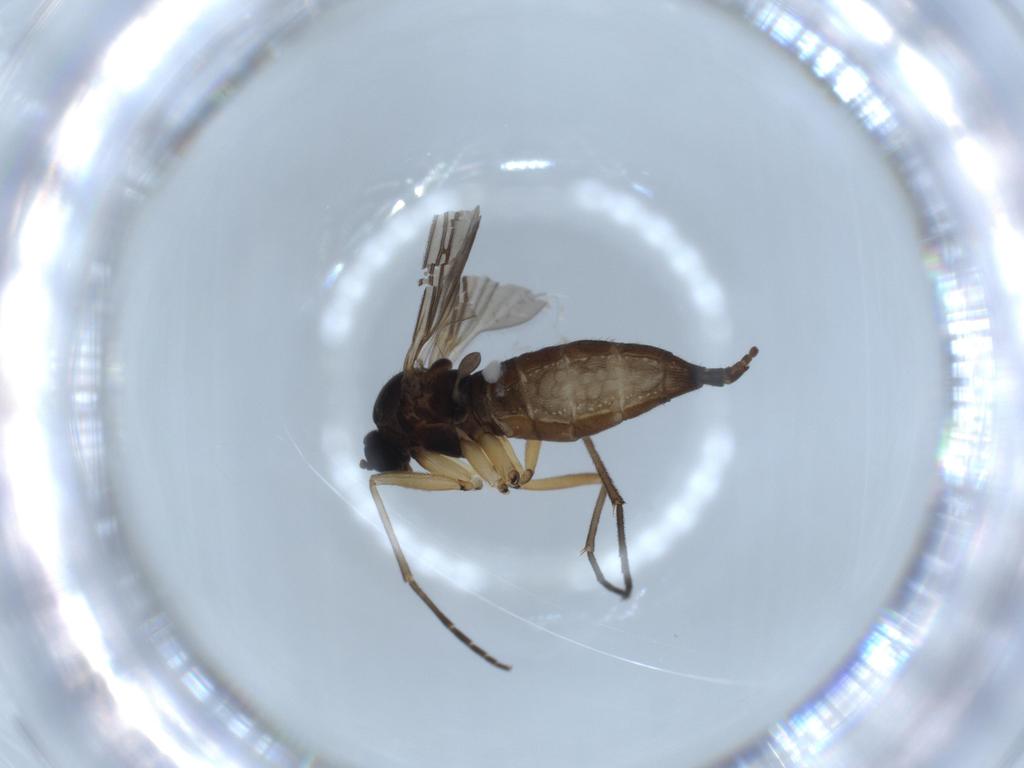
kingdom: Animalia
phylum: Arthropoda
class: Insecta
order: Diptera
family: Sciaridae
